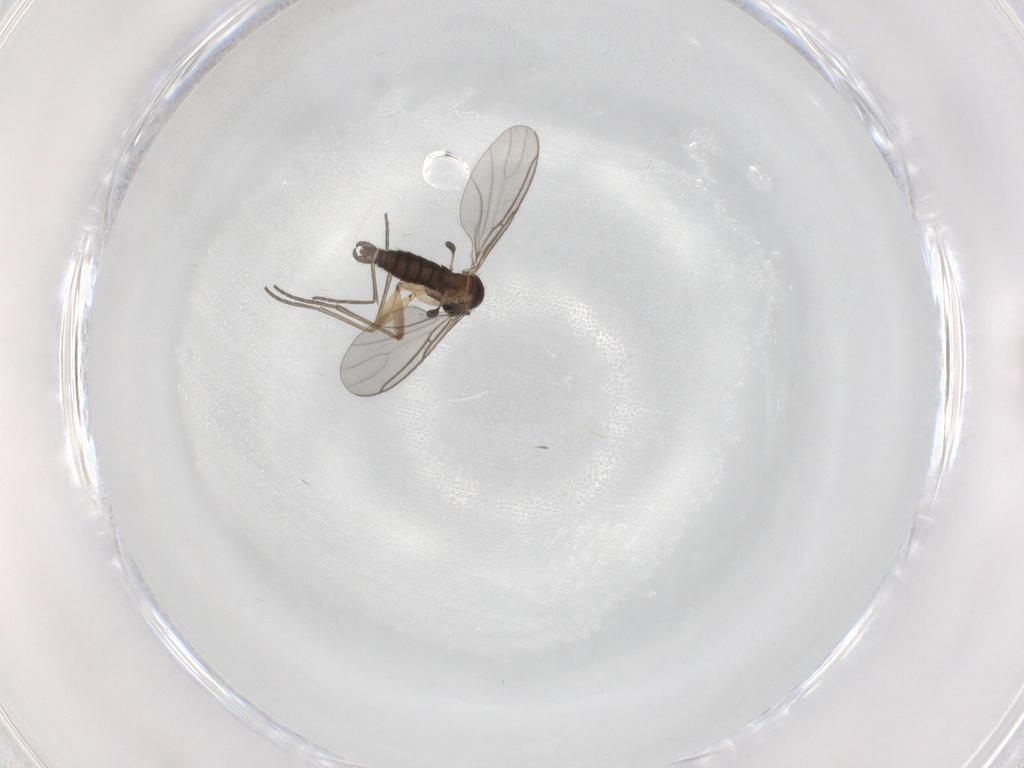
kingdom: Animalia
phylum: Arthropoda
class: Insecta
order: Diptera
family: Sciaridae
